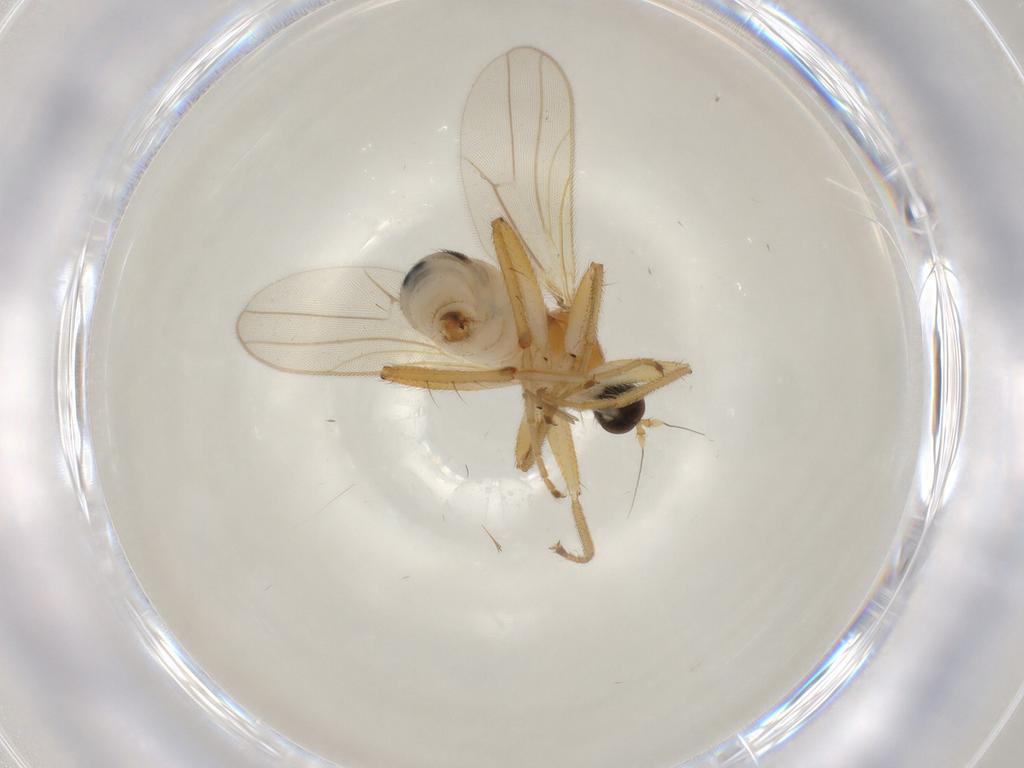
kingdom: Animalia
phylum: Arthropoda
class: Insecta
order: Diptera
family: Hybotidae
